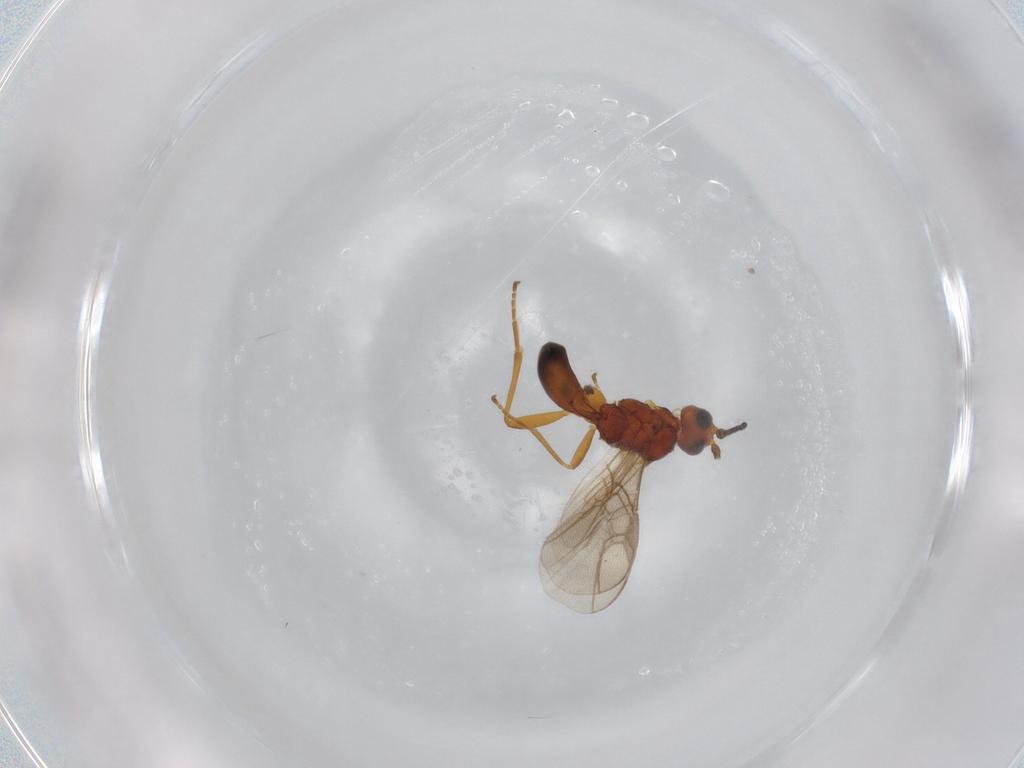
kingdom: Animalia
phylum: Arthropoda
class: Insecta
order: Hymenoptera
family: Braconidae
